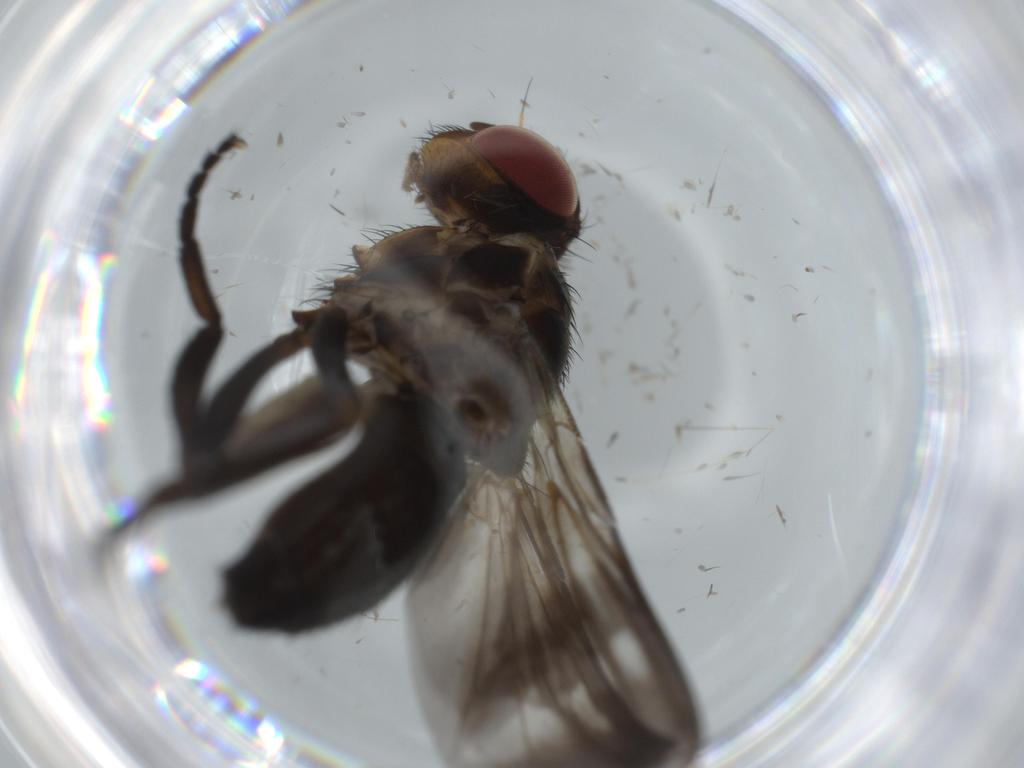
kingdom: Animalia
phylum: Arthropoda
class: Insecta
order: Diptera
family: Calliphoridae
